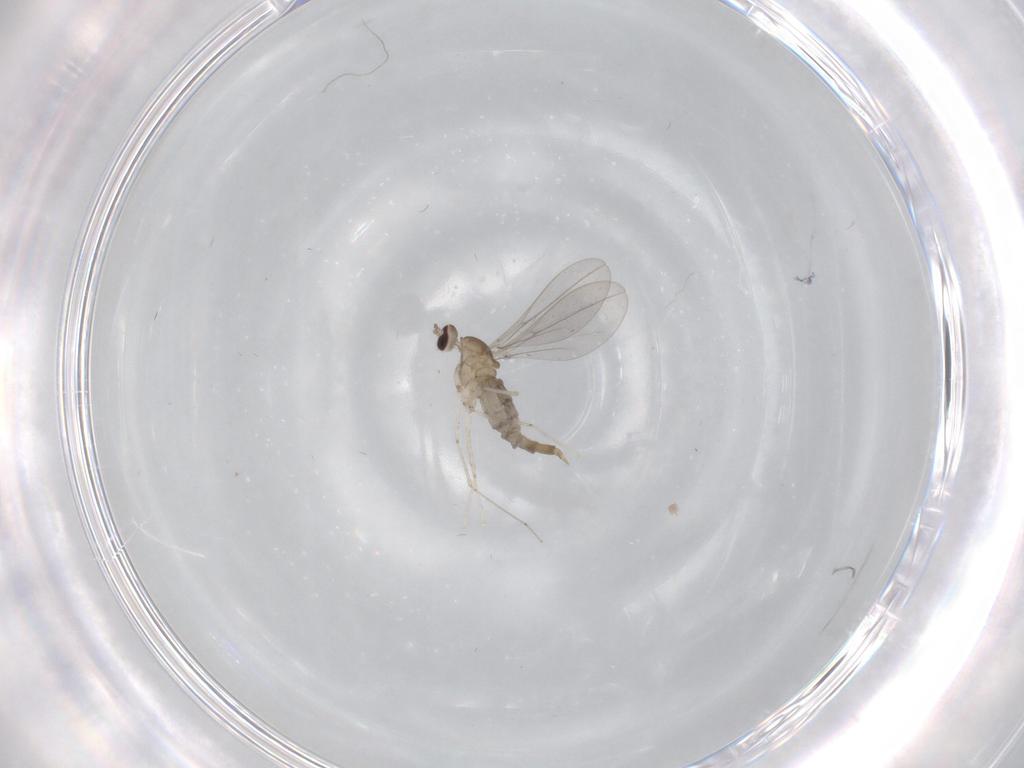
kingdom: Animalia
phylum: Arthropoda
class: Insecta
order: Diptera
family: Cecidomyiidae
